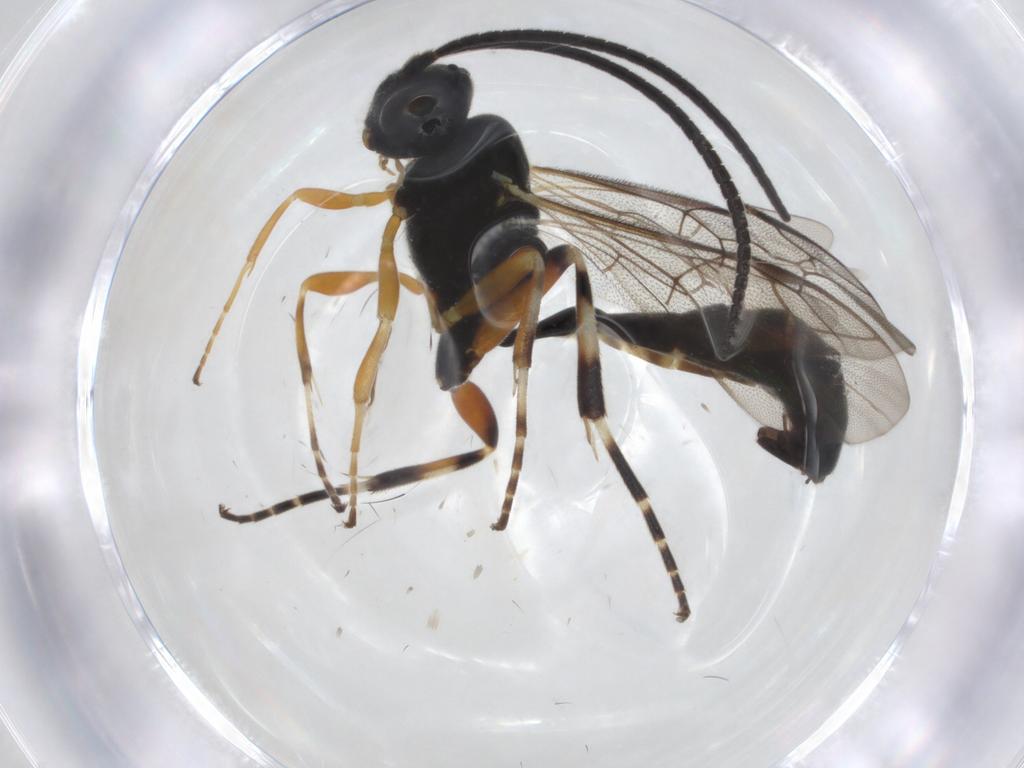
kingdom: Animalia
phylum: Arthropoda
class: Insecta
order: Hymenoptera
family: Ichneumonidae
